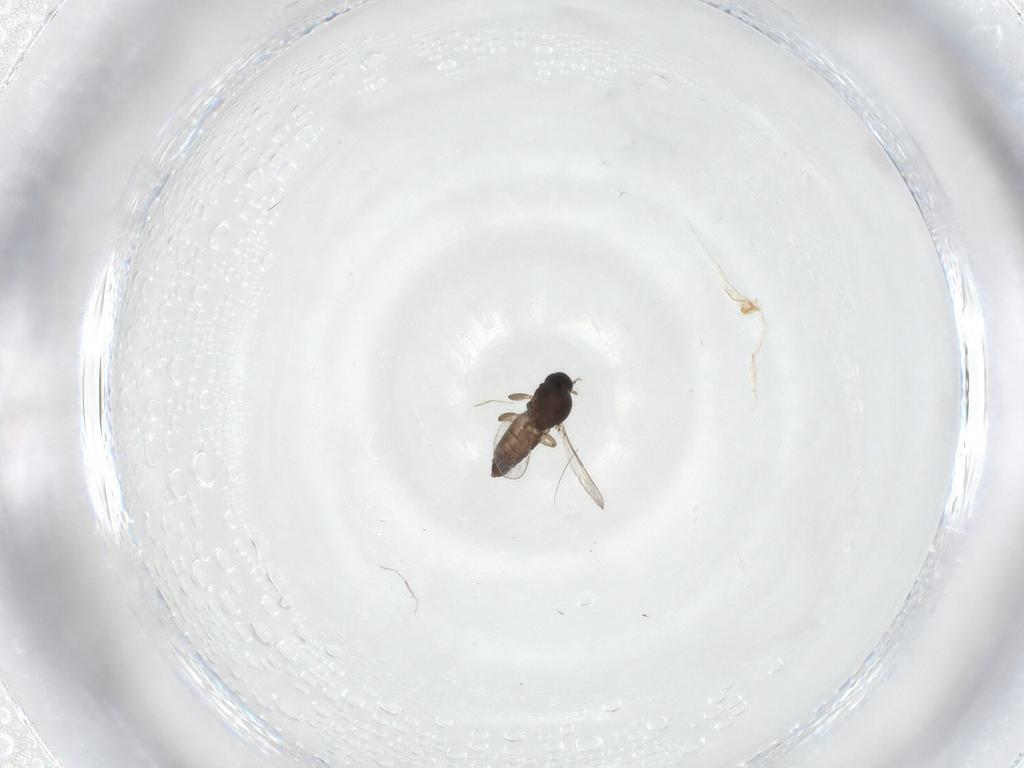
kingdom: Animalia
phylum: Arthropoda
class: Insecta
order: Diptera
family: Ceratopogonidae
